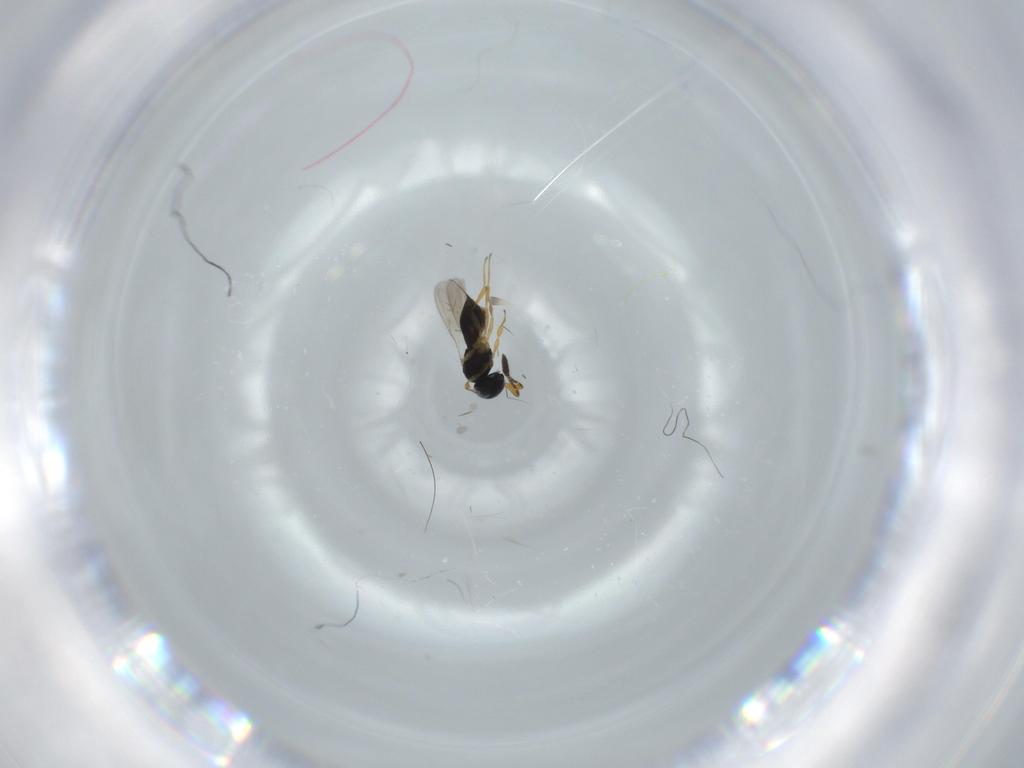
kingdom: Animalia
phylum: Arthropoda
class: Insecta
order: Hymenoptera
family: Scelionidae
